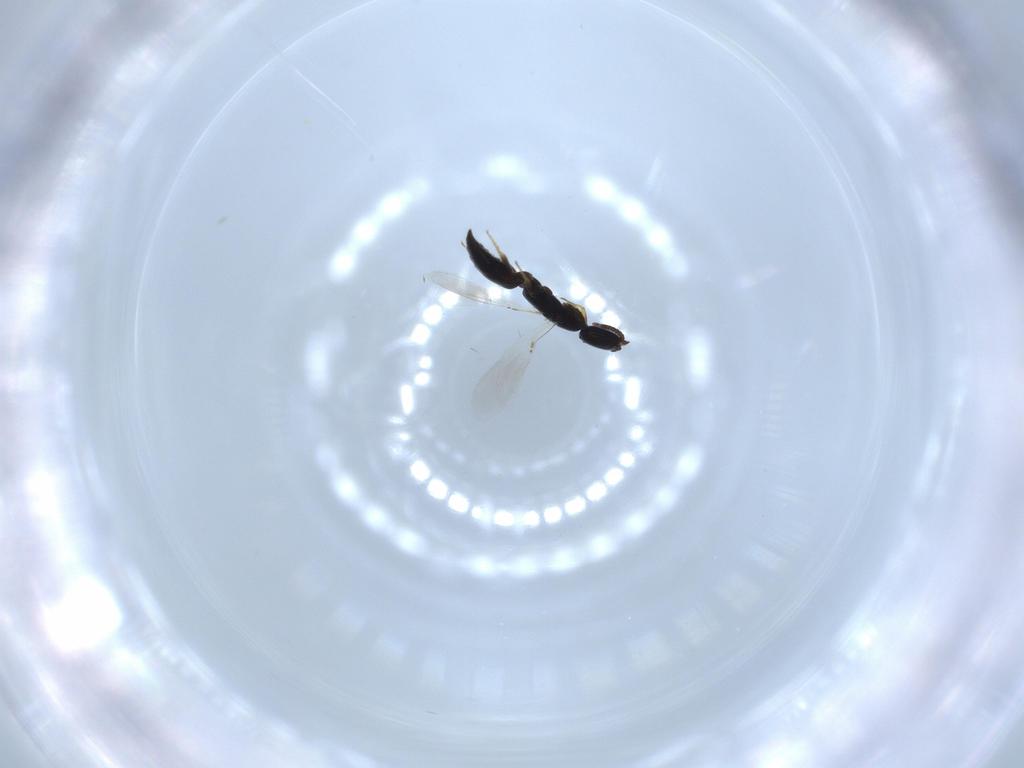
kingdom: Animalia
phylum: Arthropoda
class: Insecta
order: Hymenoptera
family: Bethylidae
